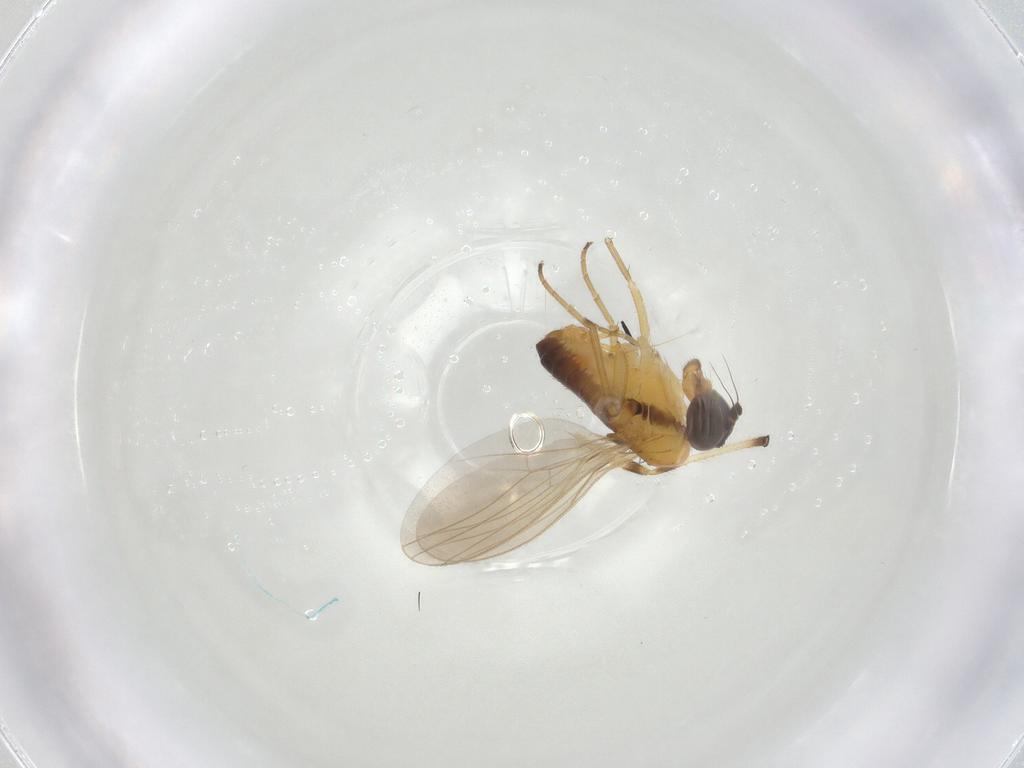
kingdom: Animalia
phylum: Arthropoda
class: Insecta
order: Diptera
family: Dolichopodidae
